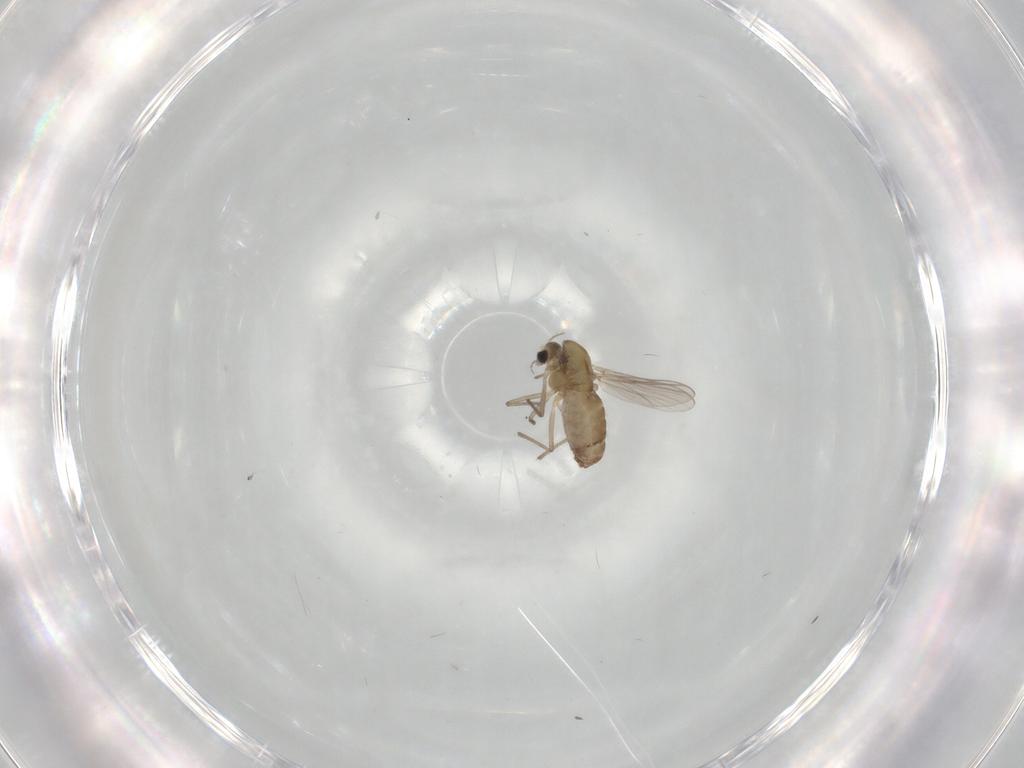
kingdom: Animalia
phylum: Arthropoda
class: Insecta
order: Diptera
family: Chironomidae
